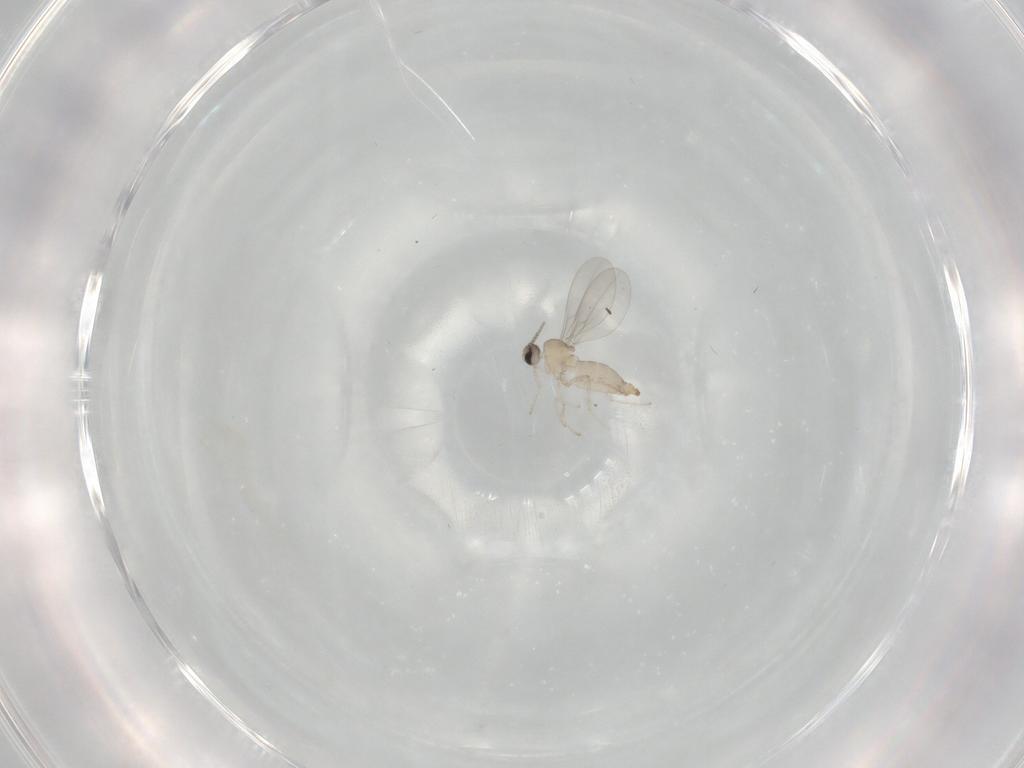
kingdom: Animalia
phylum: Arthropoda
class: Insecta
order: Diptera
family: Cecidomyiidae
